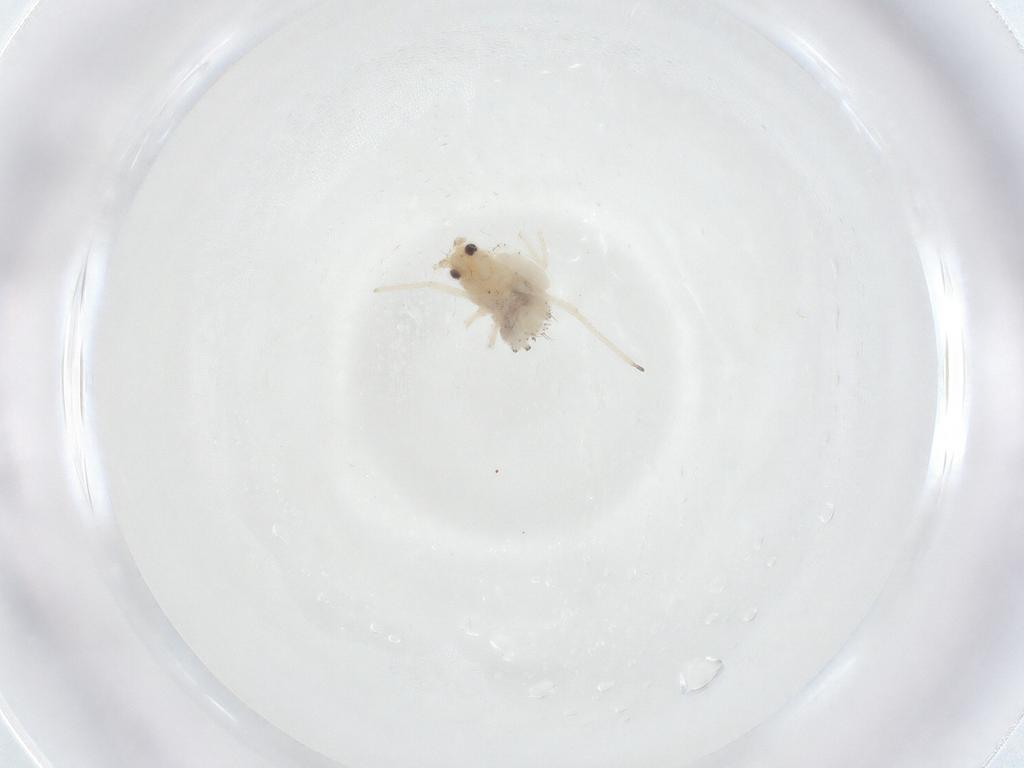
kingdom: Animalia
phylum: Arthropoda
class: Insecta
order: Hemiptera
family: Aphididae
